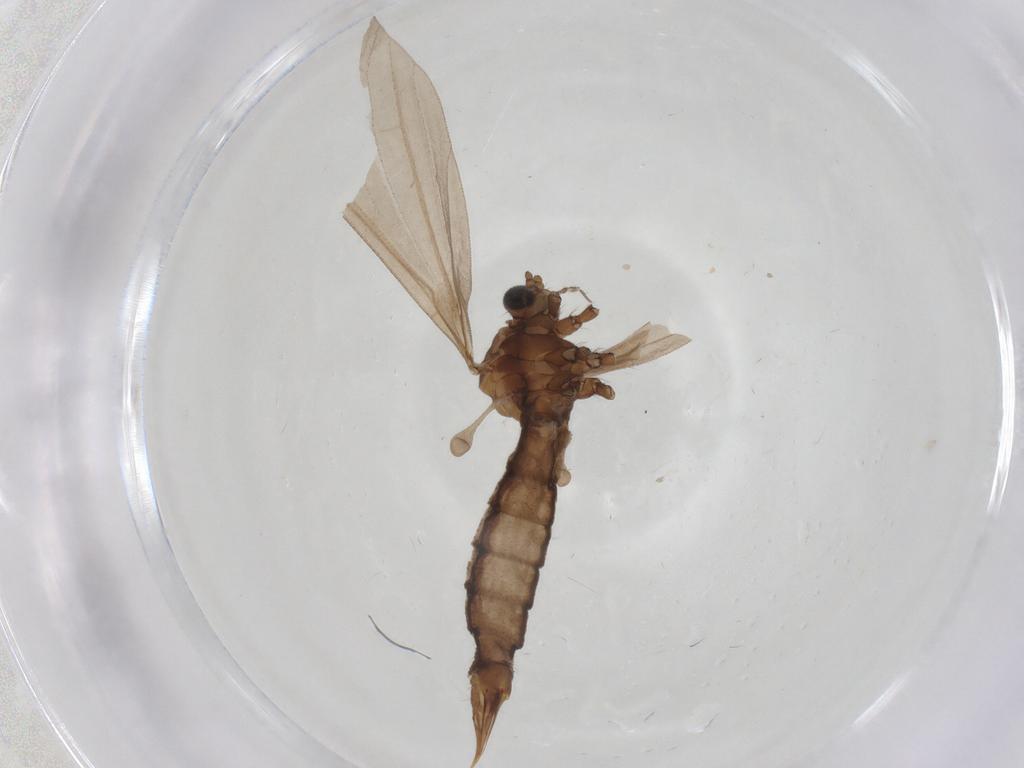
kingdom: Animalia
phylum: Arthropoda
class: Insecta
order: Diptera
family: Limoniidae
